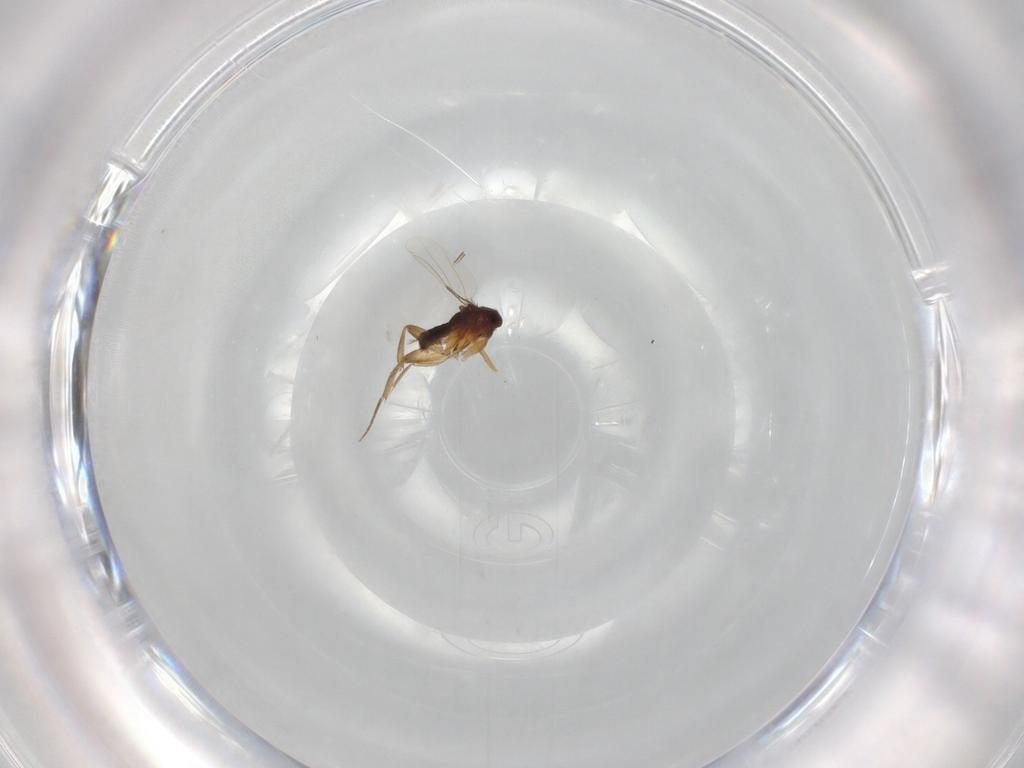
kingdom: Animalia
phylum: Arthropoda
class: Insecta
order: Diptera
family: Phoridae
